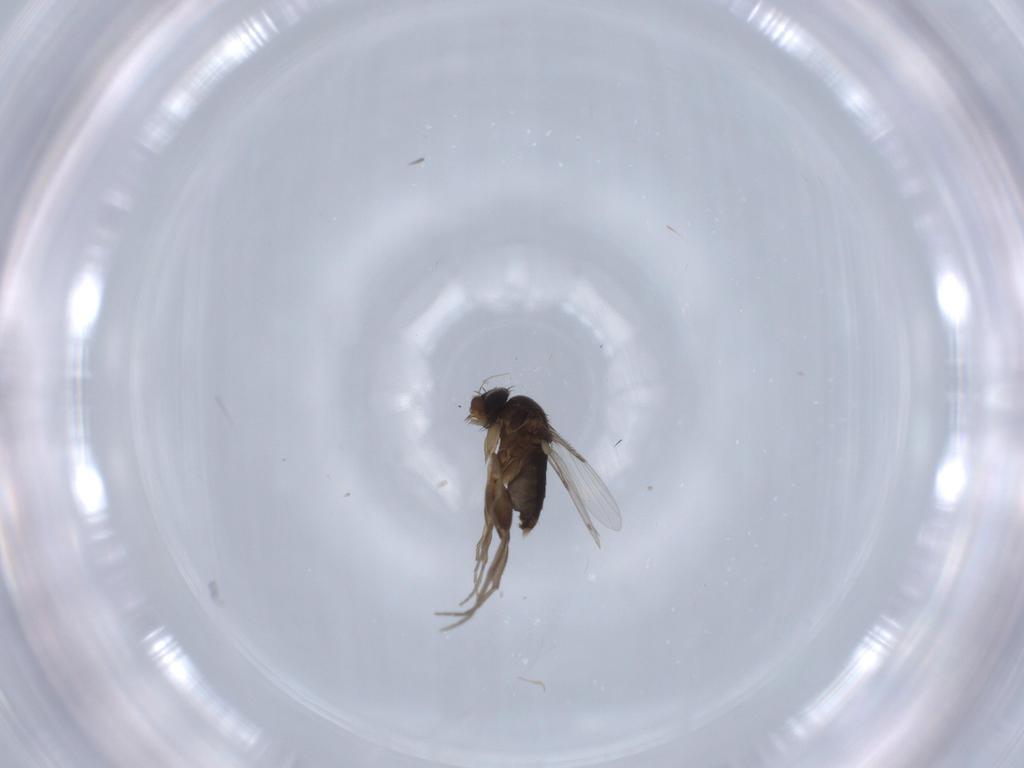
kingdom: Animalia
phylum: Arthropoda
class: Insecta
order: Diptera
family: Phoridae
